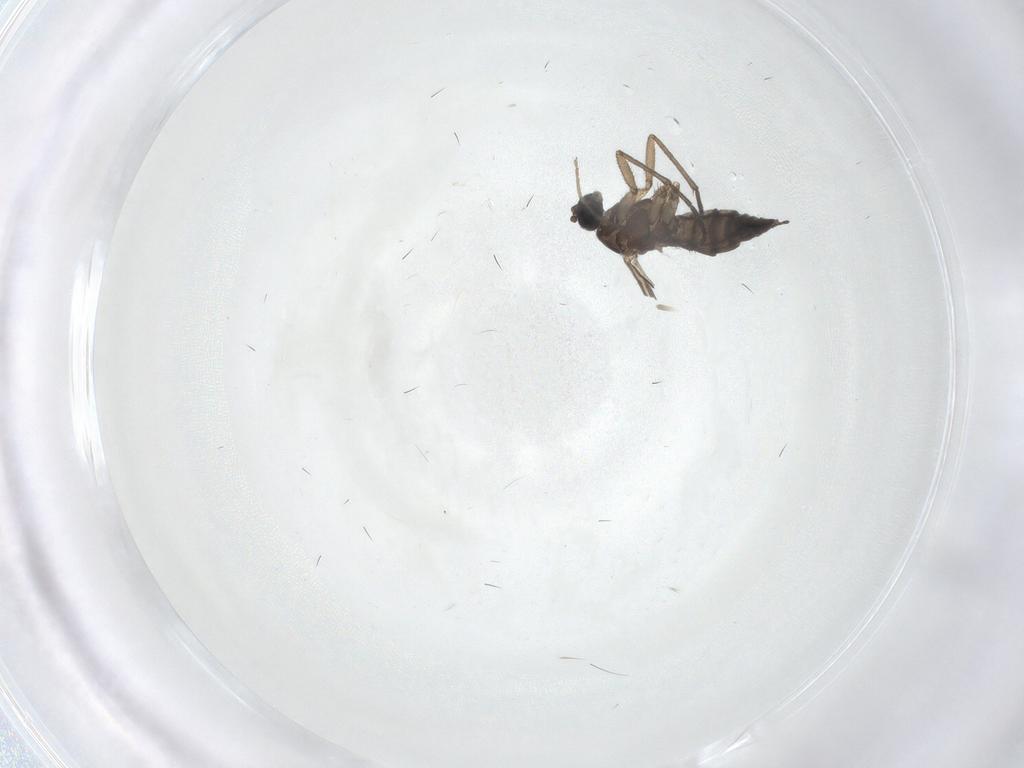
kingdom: Animalia
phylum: Arthropoda
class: Insecta
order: Diptera
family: Sciaridae
